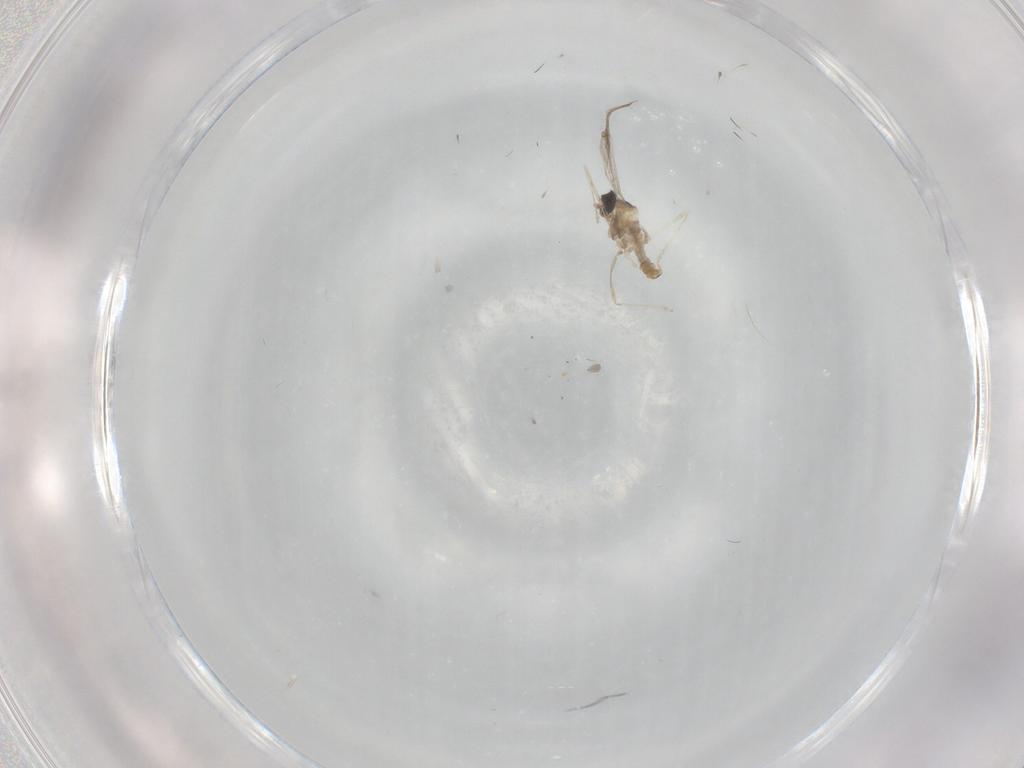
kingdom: Animalia
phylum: Arthropoda
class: Insecta
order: Diptera
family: Cecidomyiidae
